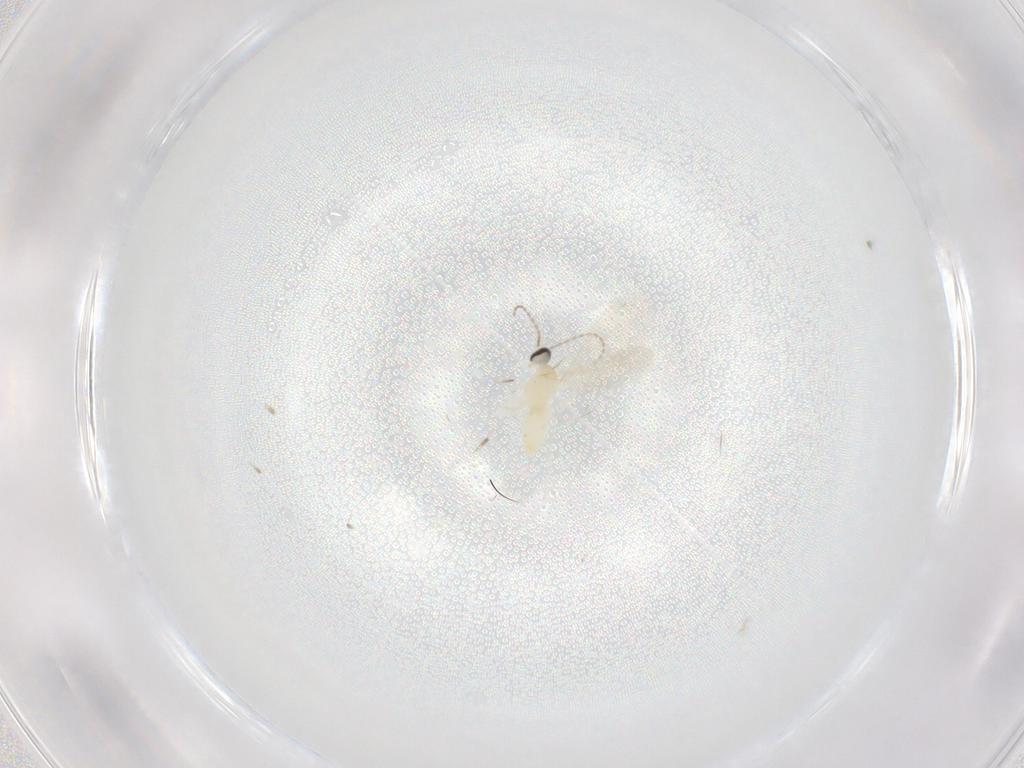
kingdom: Animalia
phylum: Arthropoda
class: Insecta
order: Diptera
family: Cecidomyiidae
